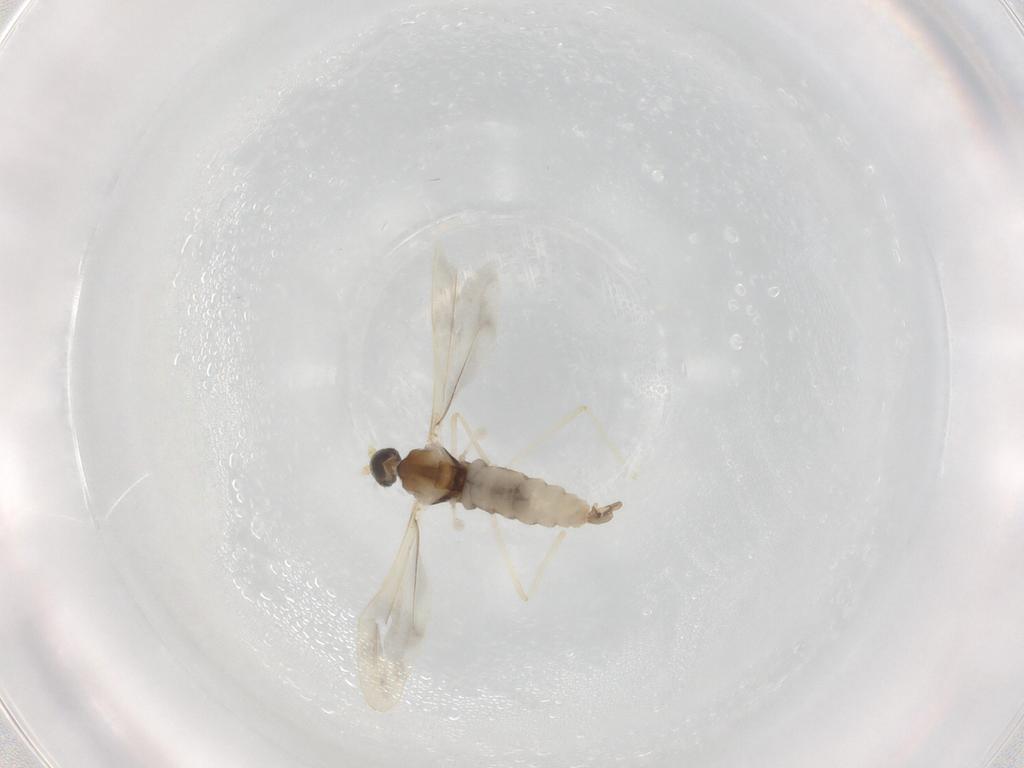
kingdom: Animalia
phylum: Arthropoda
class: Insecta
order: Diptera
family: Cecidomyiidae
